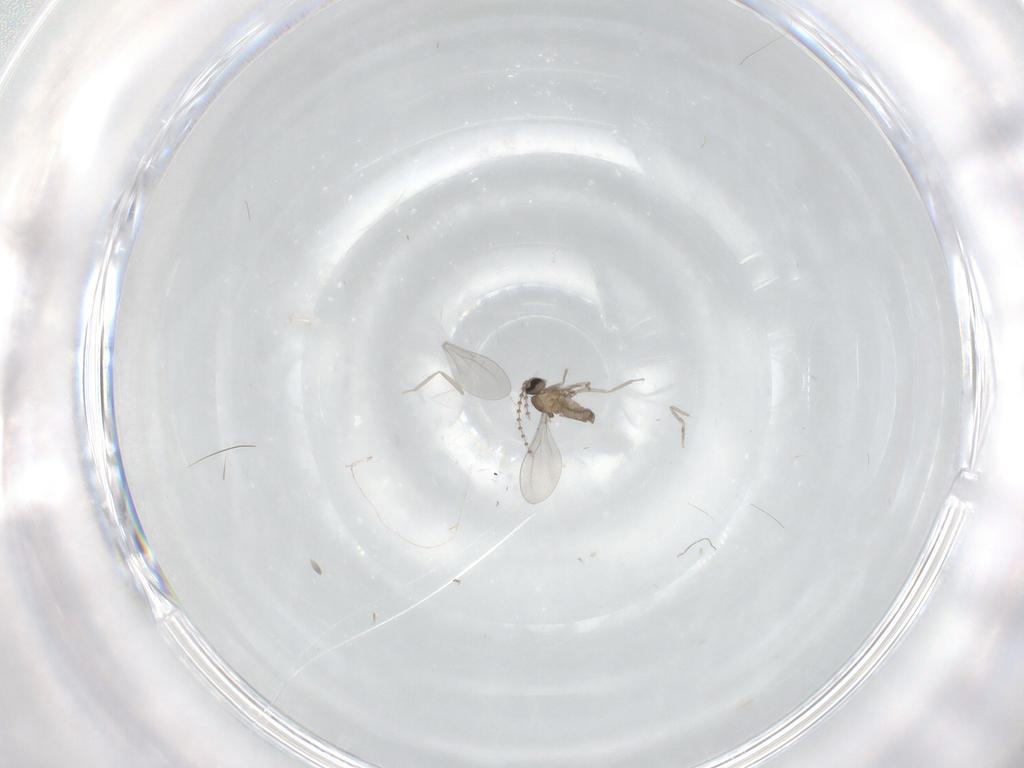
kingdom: Animalia
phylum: Arthropoda
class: Insecta
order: Diptera
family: Cecidomyiidae
